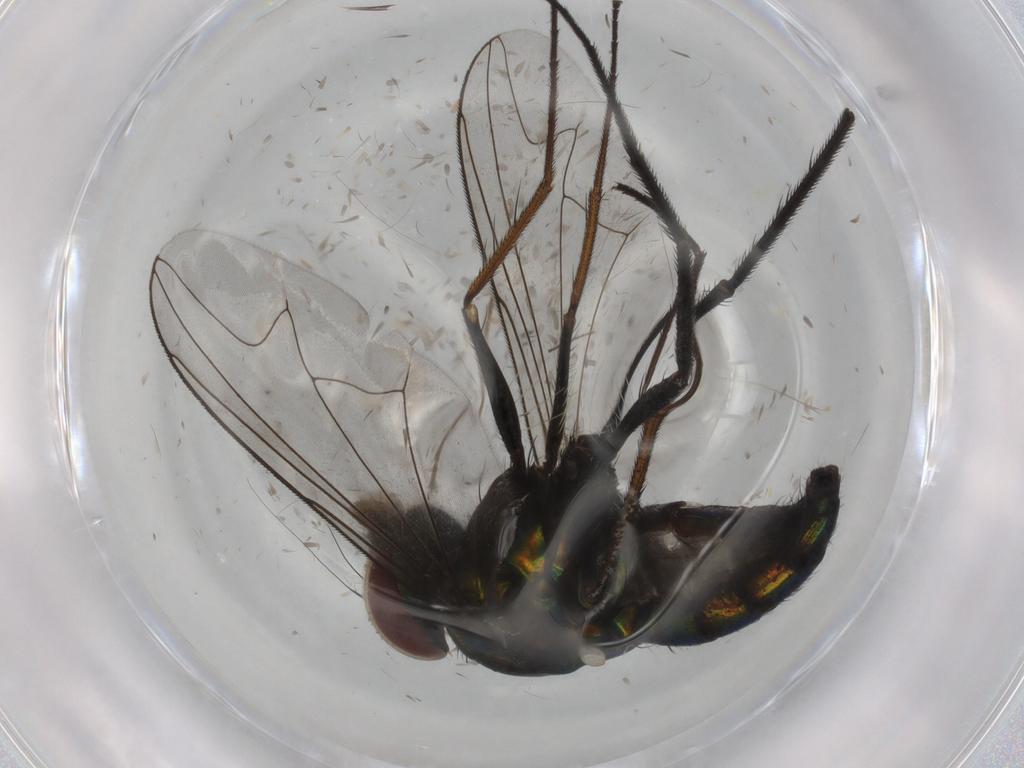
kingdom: Animalia
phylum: Arthropoda
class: Insecta
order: Diptera
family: Dolichopodidae
